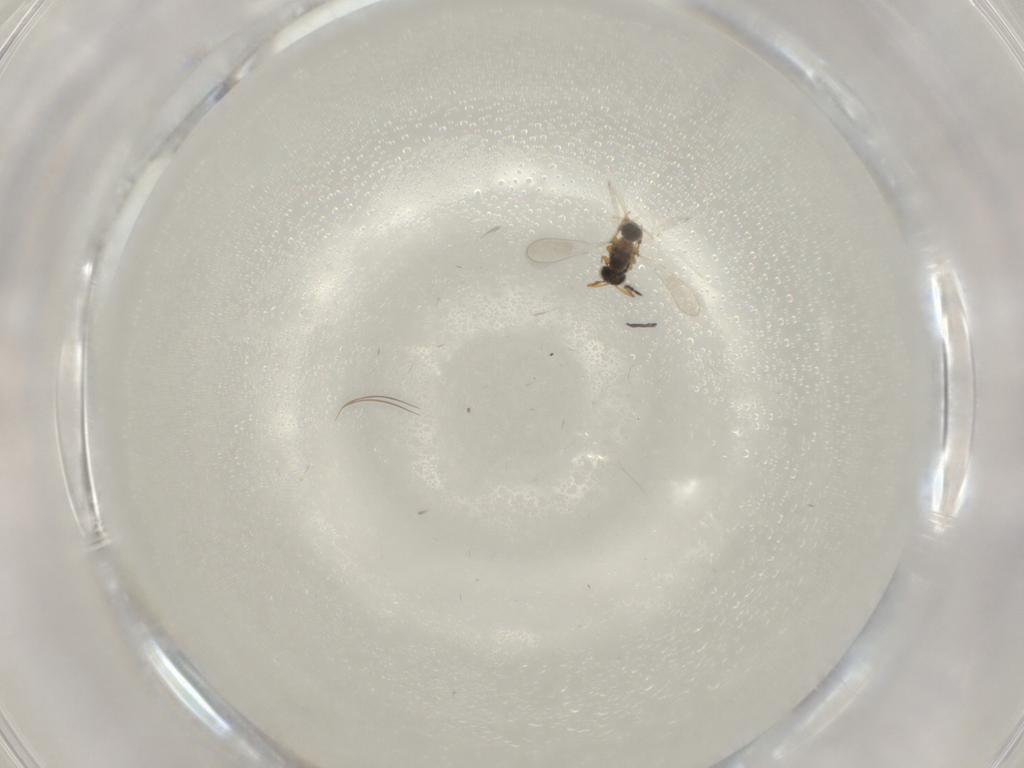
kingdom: Animalia
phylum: Arthropoda
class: Insecta
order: Hymenoptera
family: Platygastridae
